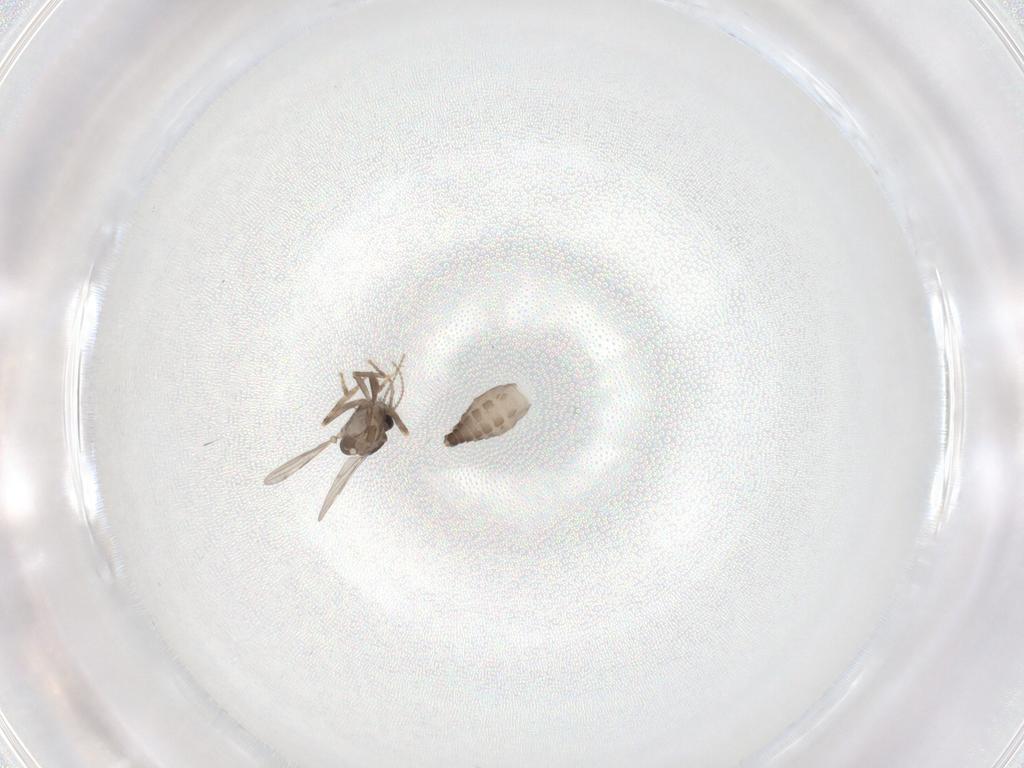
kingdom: Animalia
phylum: Arthropoda
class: Insecta
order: Diptera
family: Ceratopogonidae
